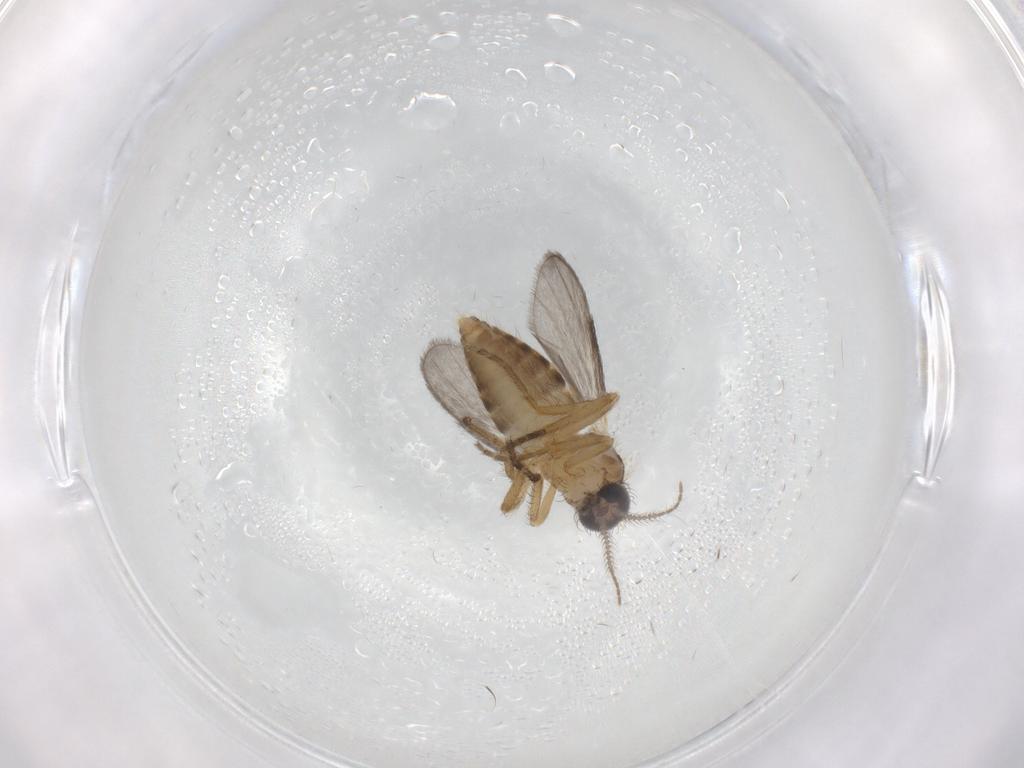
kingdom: Animalia
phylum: Arthropoda
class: Insecta
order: Diptera
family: Ceratopogonidae
